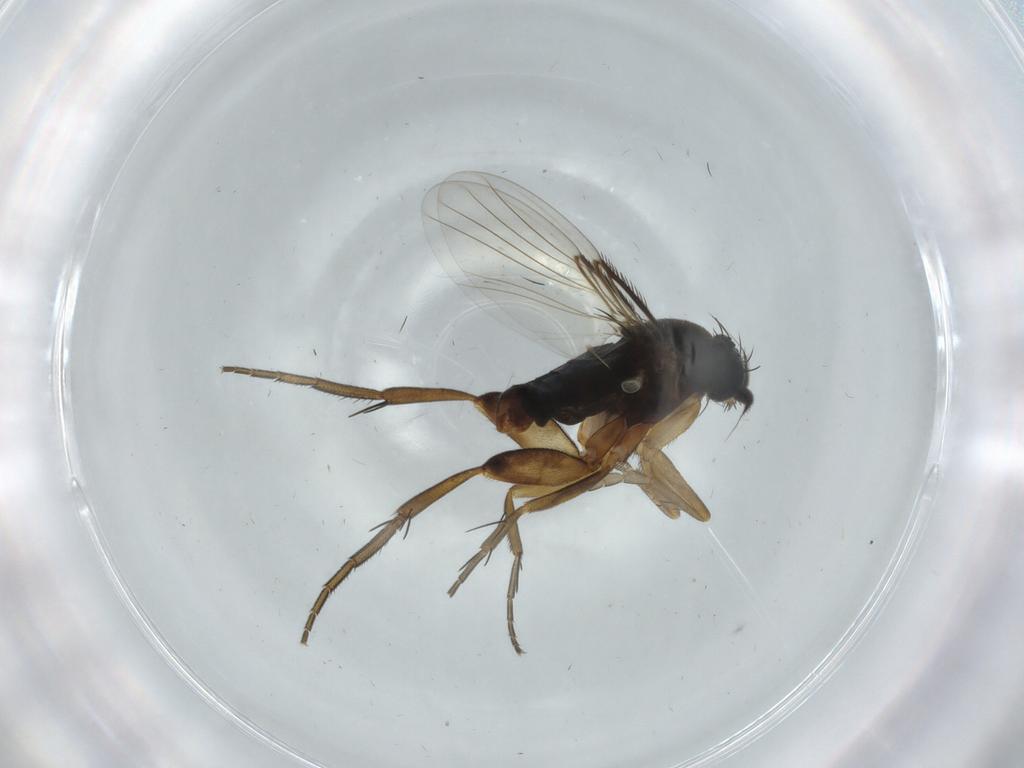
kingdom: Animalia
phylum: Arthropoda
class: Insecta
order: Diptera
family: Phoridae
